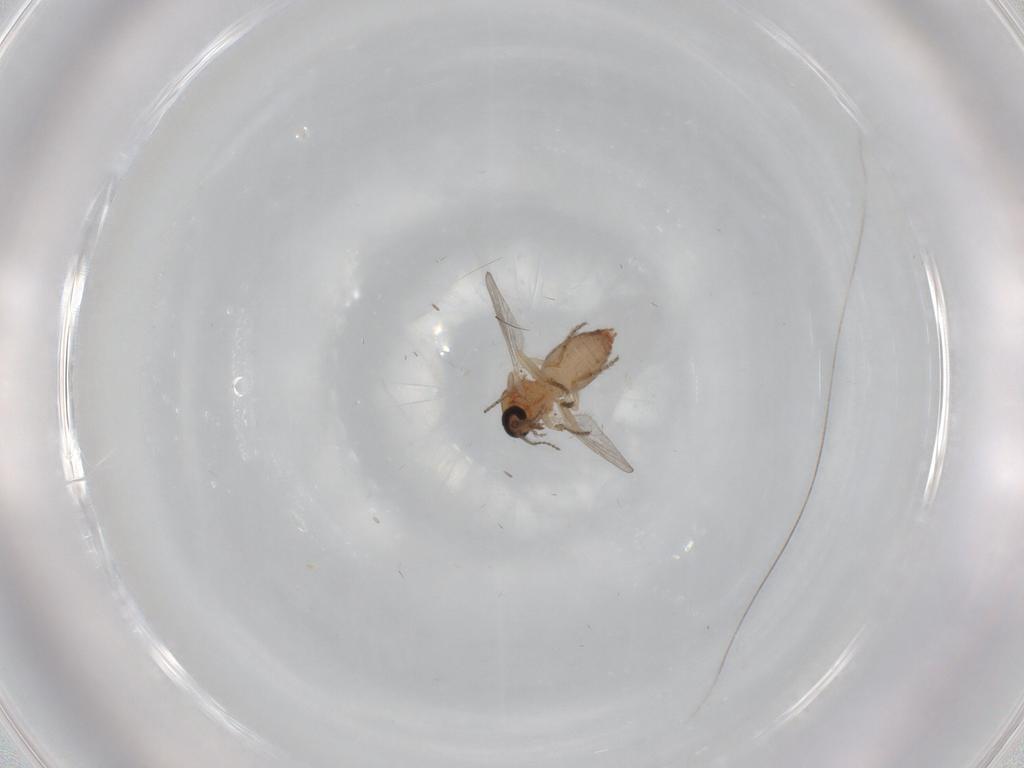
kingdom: Animalia
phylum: Arthropoda
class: Insecta
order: Diptera
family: Ceratopogonidae
